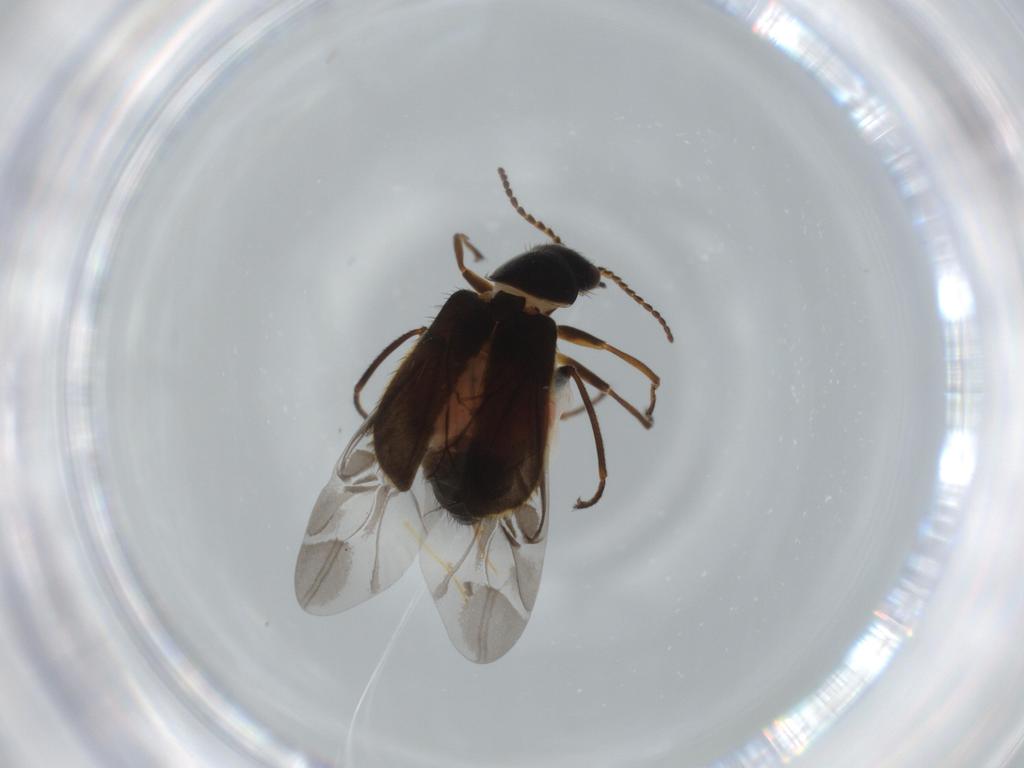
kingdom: Animalia
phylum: Arthropoda
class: Insecta
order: Coleoptera
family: Melyridae
